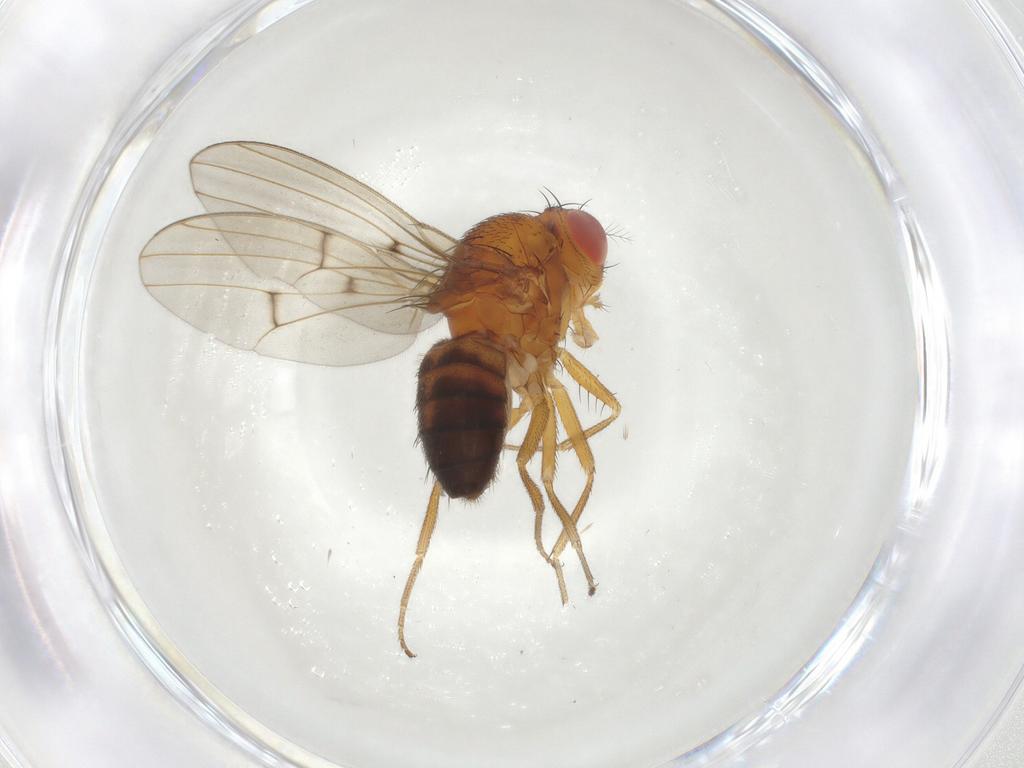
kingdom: Animalia
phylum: Arthropoda
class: Insecta
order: Diptera
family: Drosophilidae
